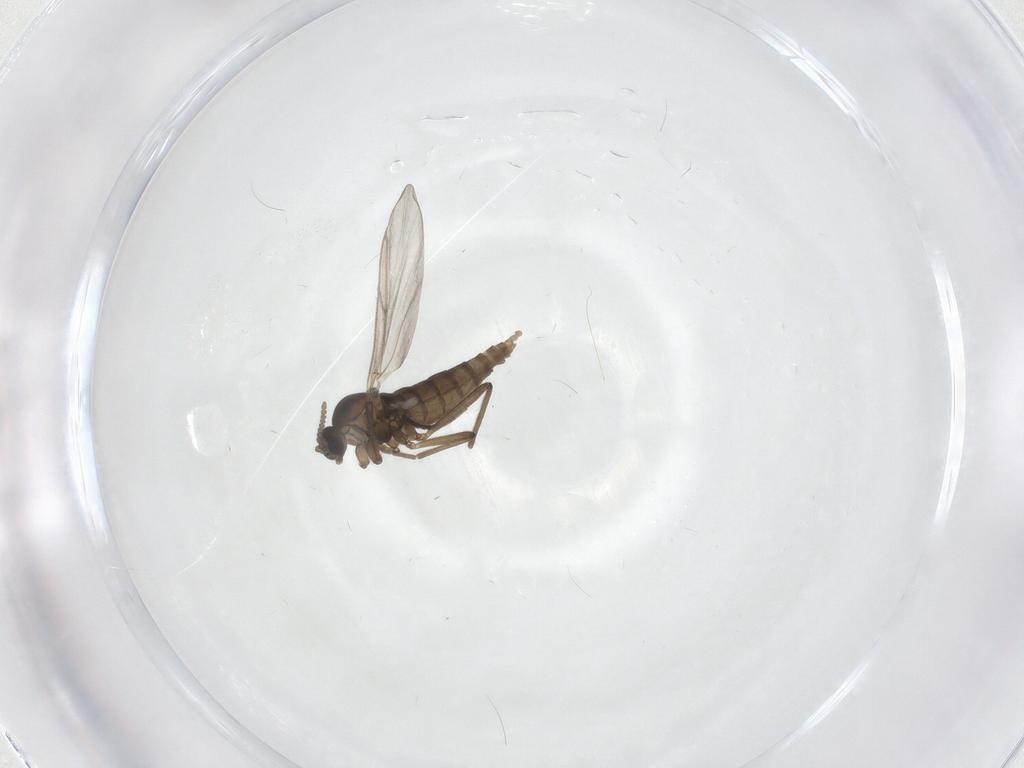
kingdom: Animalia
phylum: Arthropoda
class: Insecta
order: Diptera
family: Cecidomyiidae
